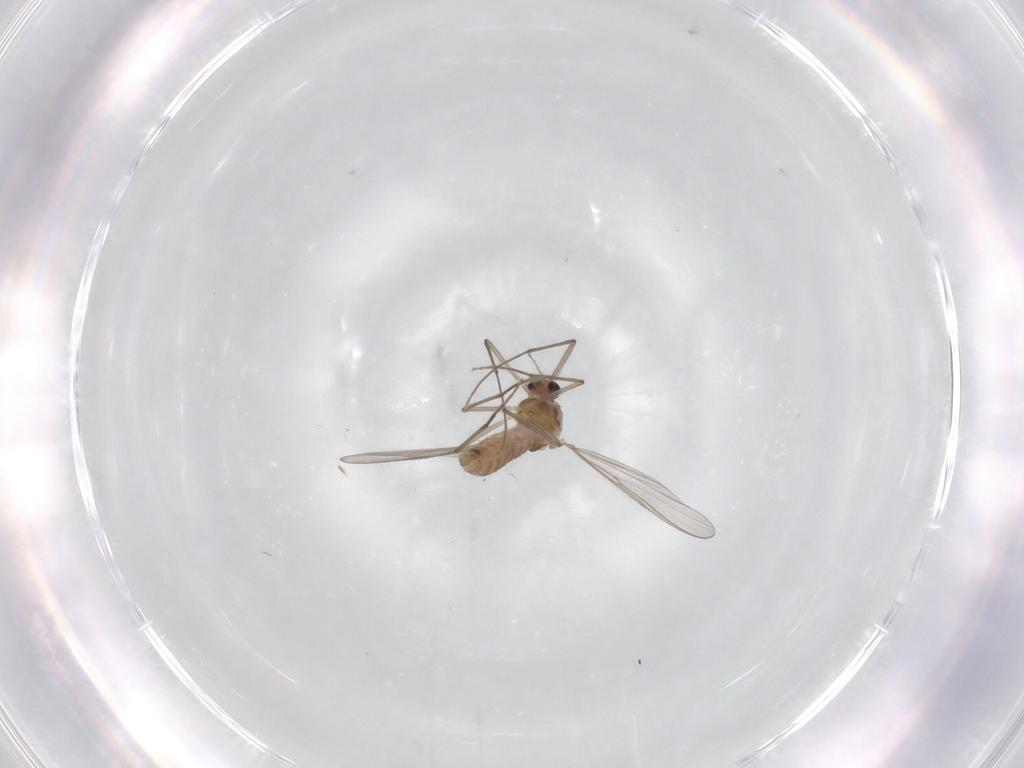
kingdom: Animalia
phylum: Arthropoda
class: Insecta
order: Diptera
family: Chironomidae
